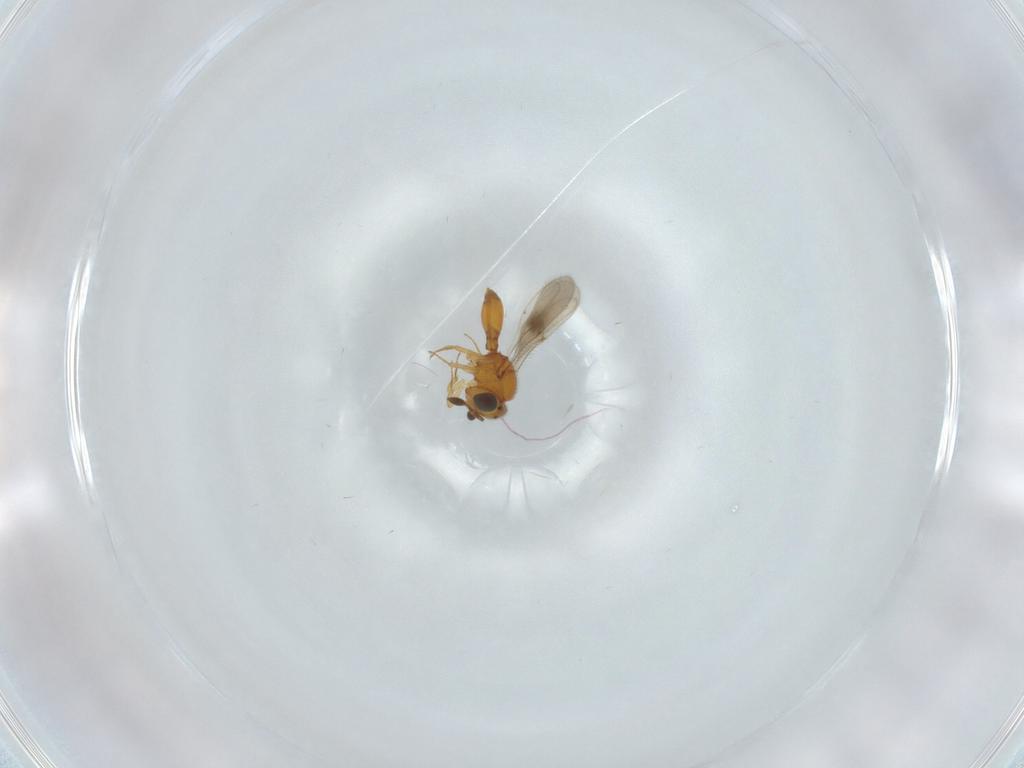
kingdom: Animalia
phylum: Arthropoda
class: Insecta
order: Hymenoptera
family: Scelionidae
